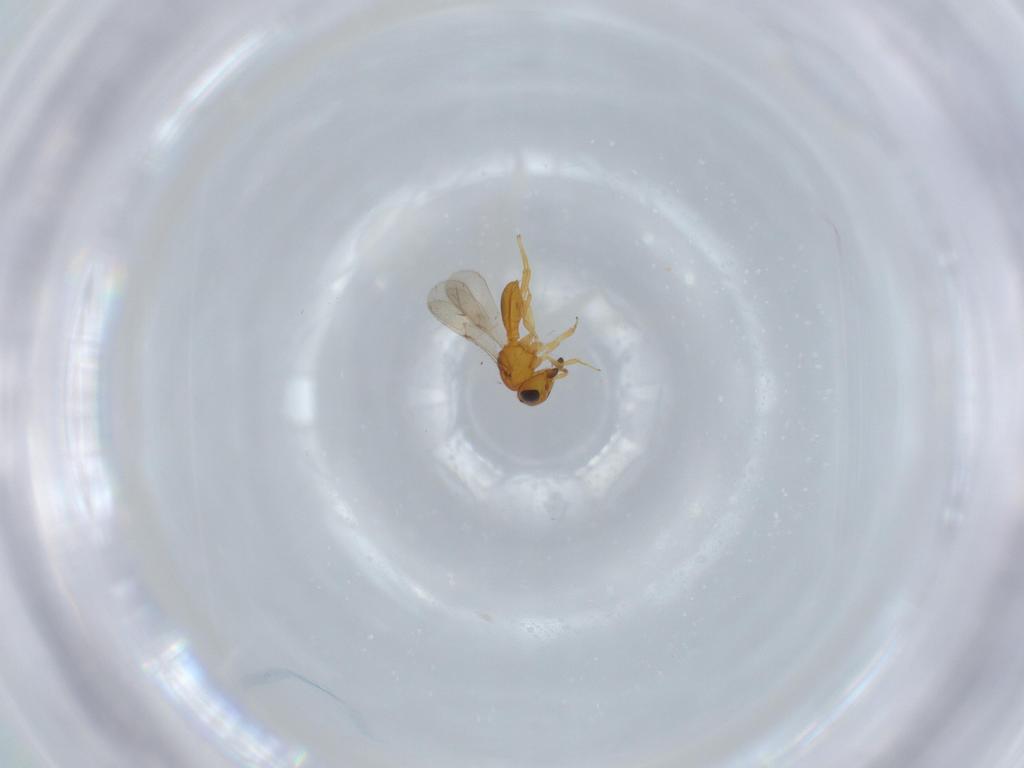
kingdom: Animalia
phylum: Arthropoda
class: Insecta
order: Hymenoptera
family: Scelionidae
